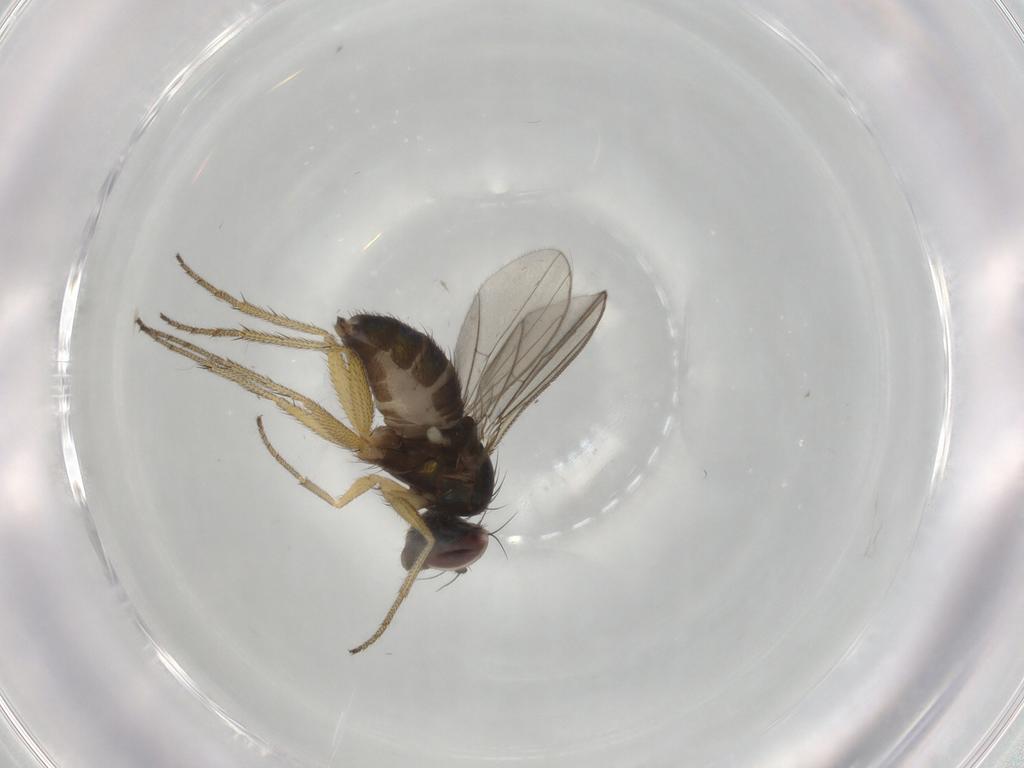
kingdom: Animalia
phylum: Arthropoda
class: Insecta
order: Diptera
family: Dolichopodidae
